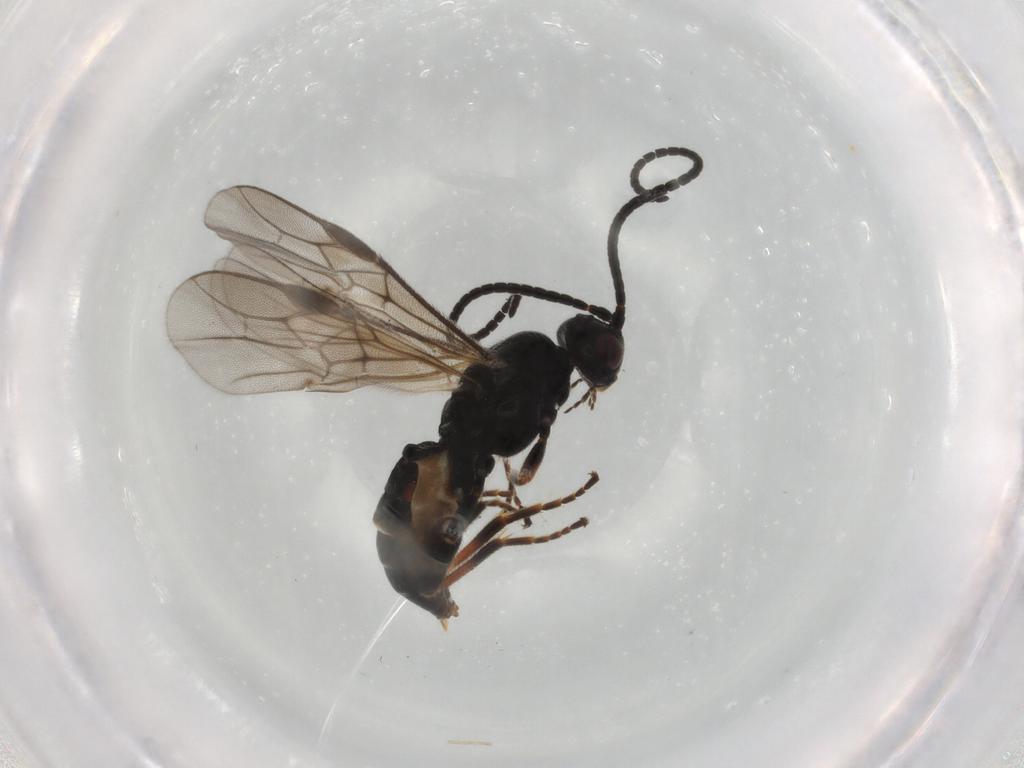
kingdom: Animalia
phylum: Arthropoda
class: Insecta
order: Hymenoptera
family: Braconidae
